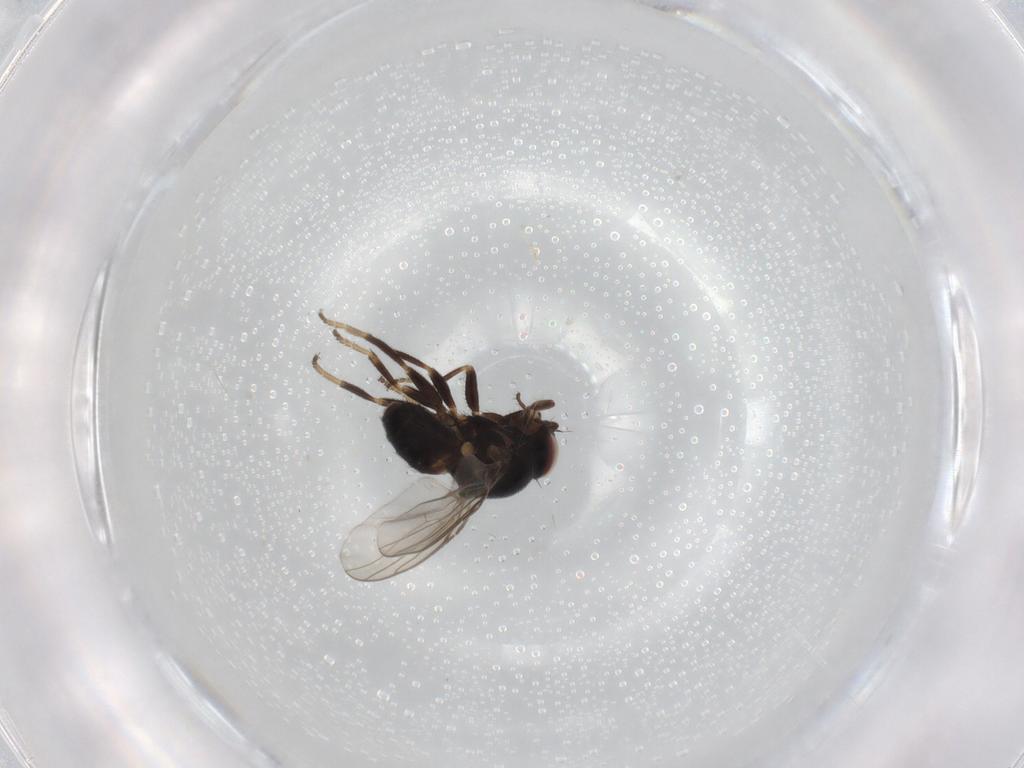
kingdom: Animalia
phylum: Arthropoda
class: Insecta
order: Diptera
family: Chloropidae
